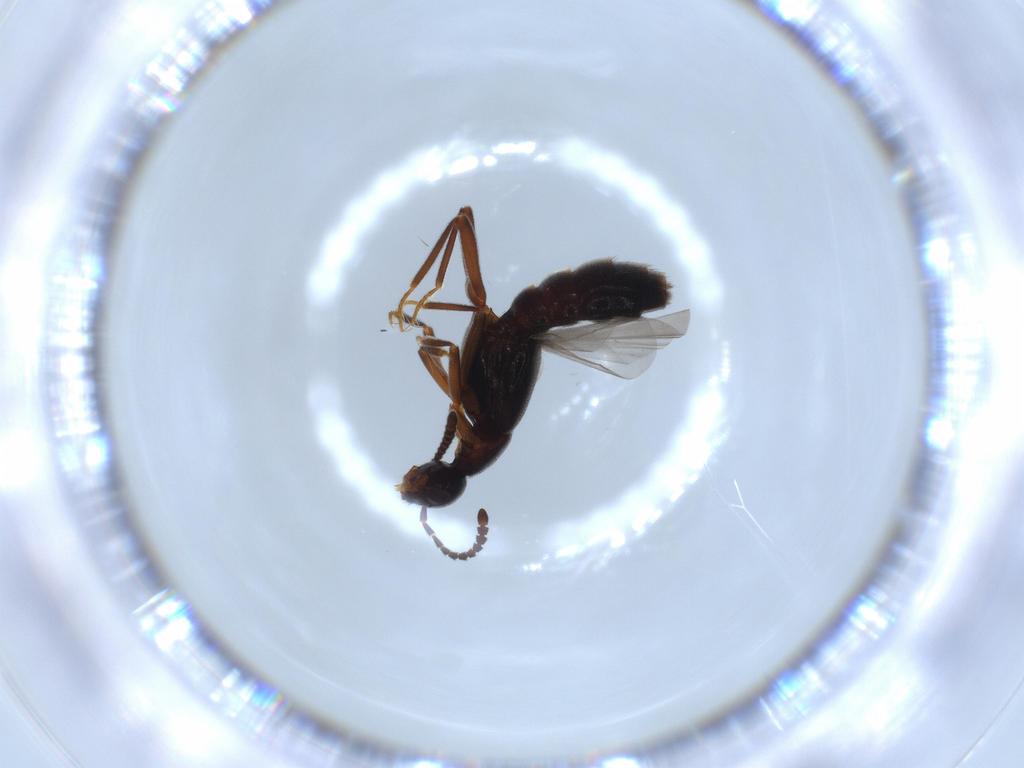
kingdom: Animalia
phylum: Arthropoda
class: Insecta
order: Coleoptera
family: Staphylinidae
